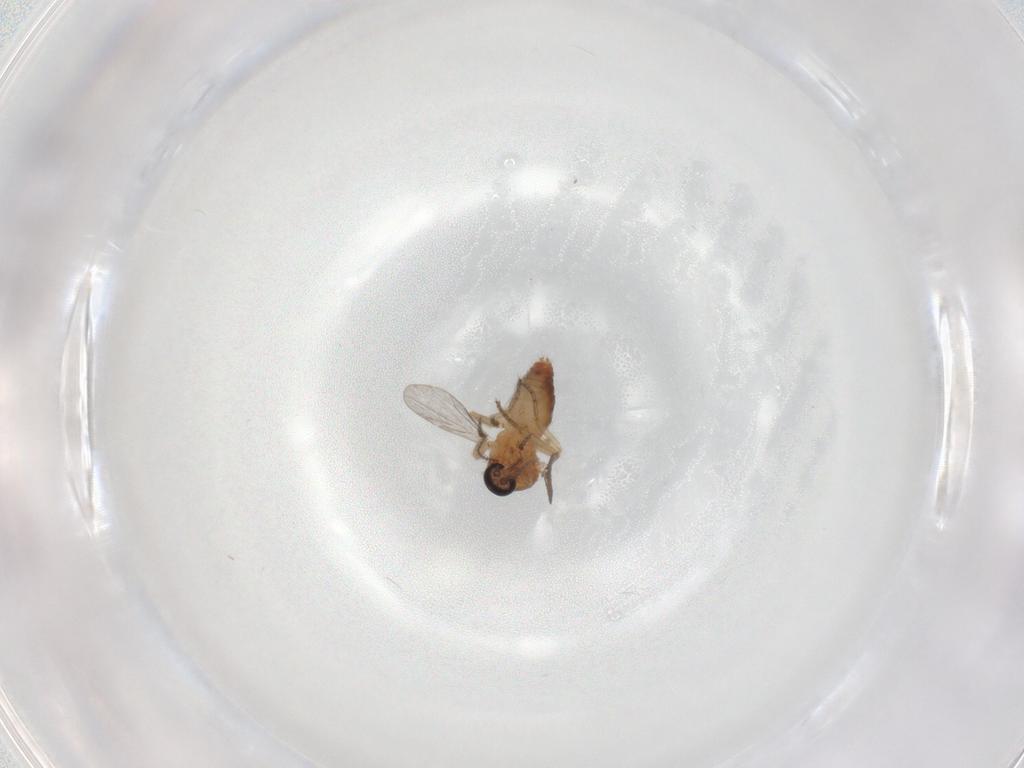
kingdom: Animalia
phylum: Arthropoda
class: Insecta
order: Diptera
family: Ceratopogonidae
